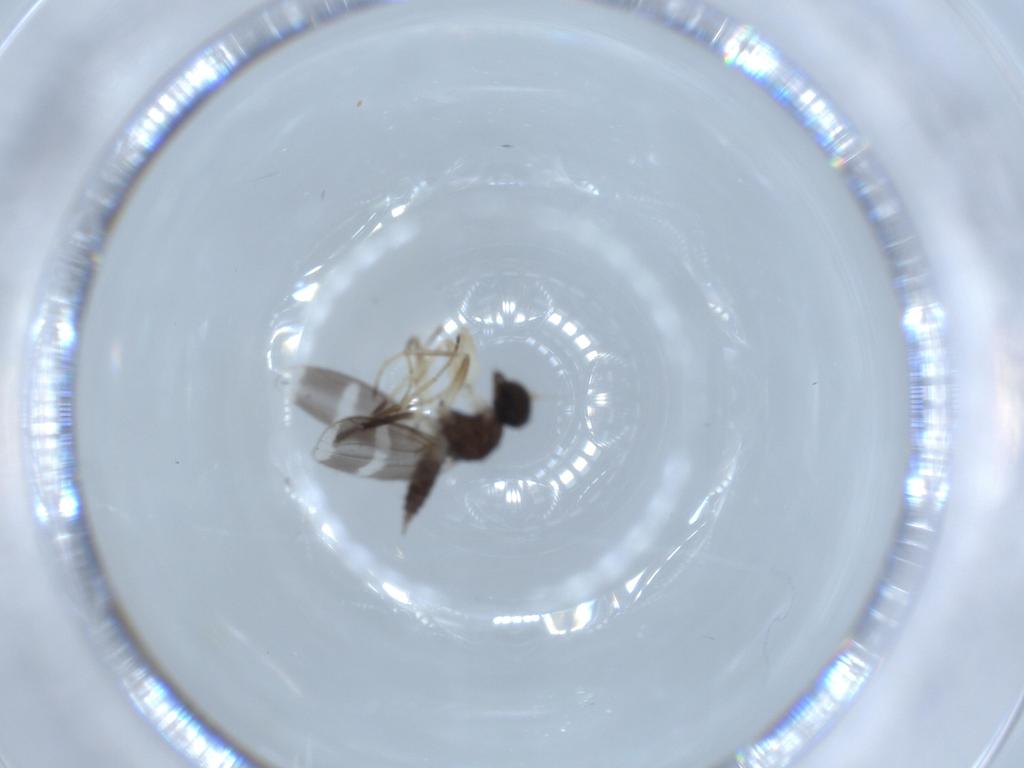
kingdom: Animalia
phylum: Arthropoda
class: Insecta
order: Diptera
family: Hybotidae
